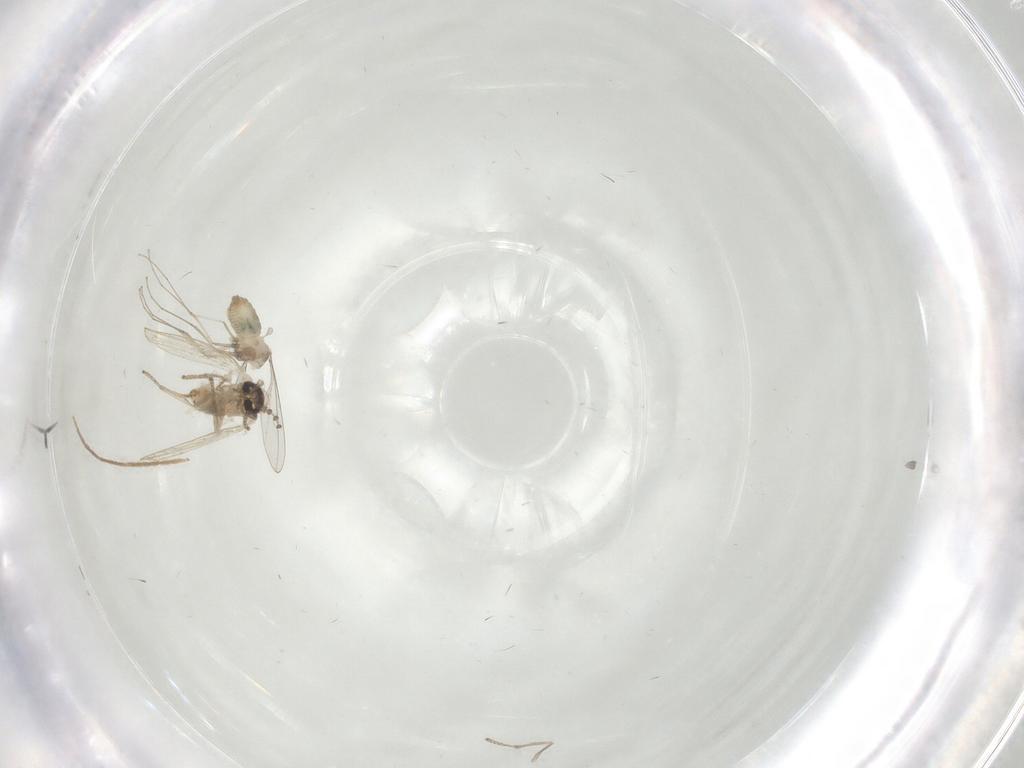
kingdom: Animalia
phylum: Arthropoda
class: Insecta
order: Diptera
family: Psychodidae
